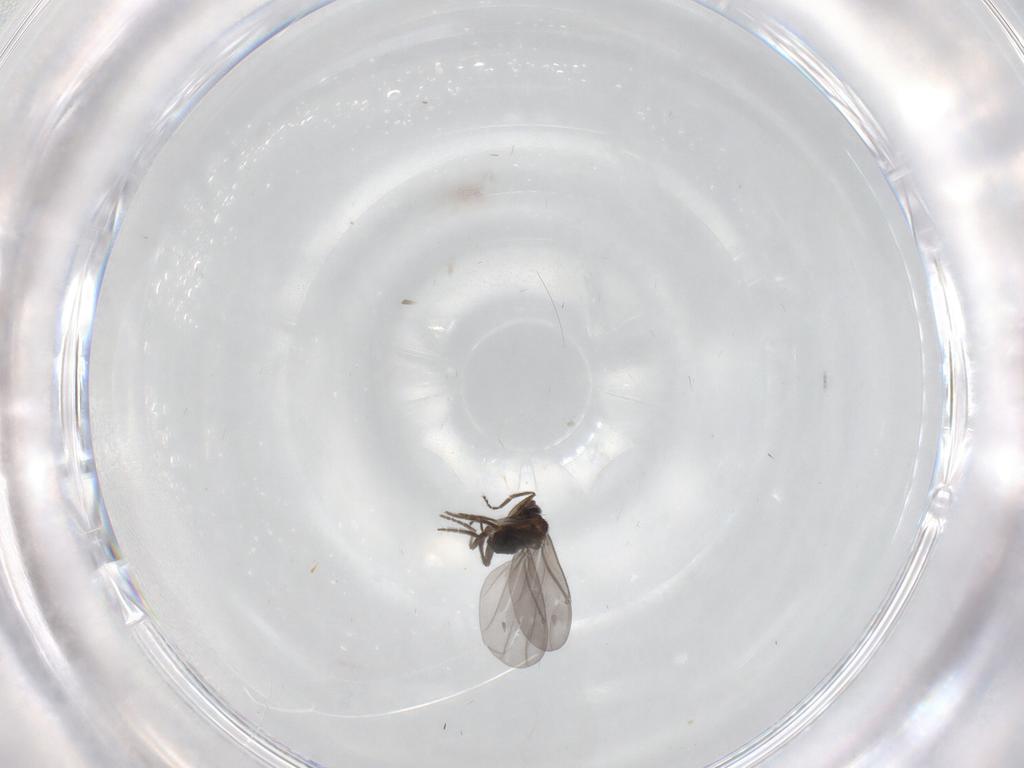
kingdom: Animalia
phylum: Arthropoda
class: Insecta
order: Diptera
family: Phoridae
